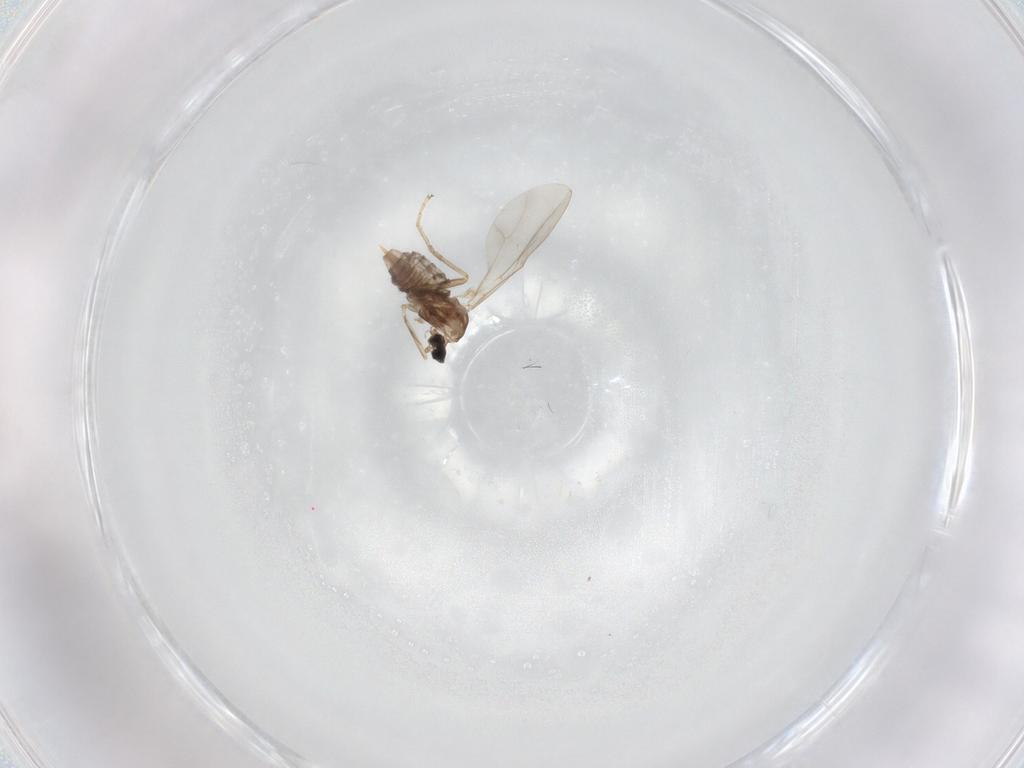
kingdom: Animalia
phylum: Arthropoda
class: Insecta
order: Diptera
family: Cecidomyiidae
